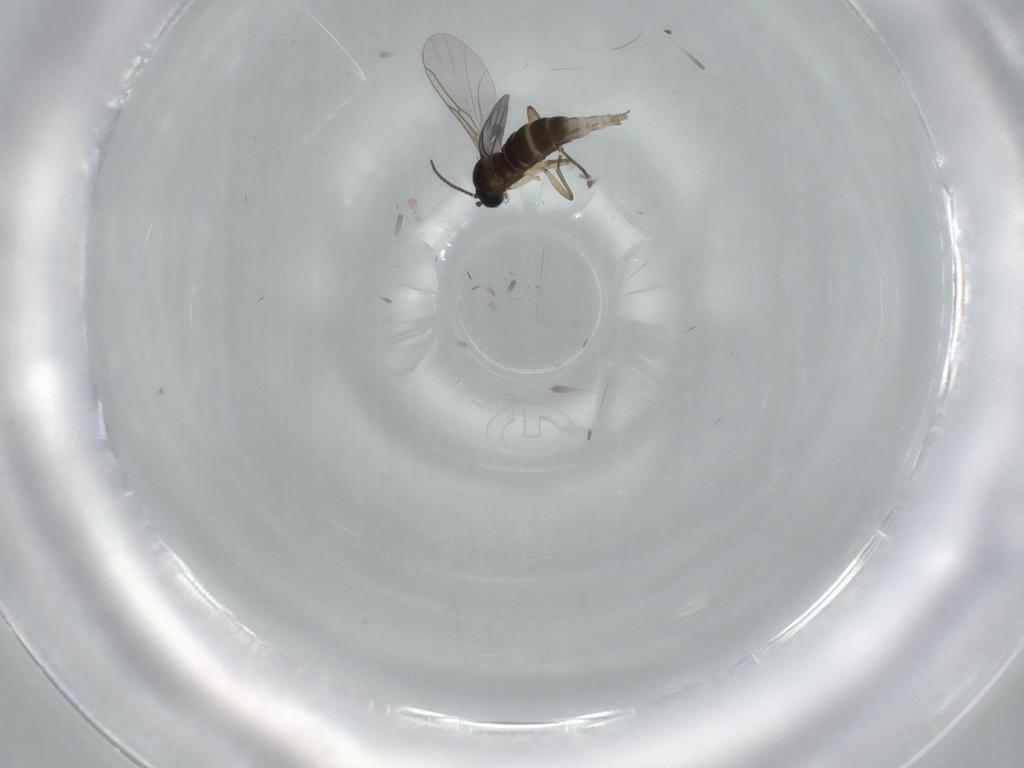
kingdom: Animalia
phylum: Arthropoda
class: Insecta
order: Diptera
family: Sciaridae
